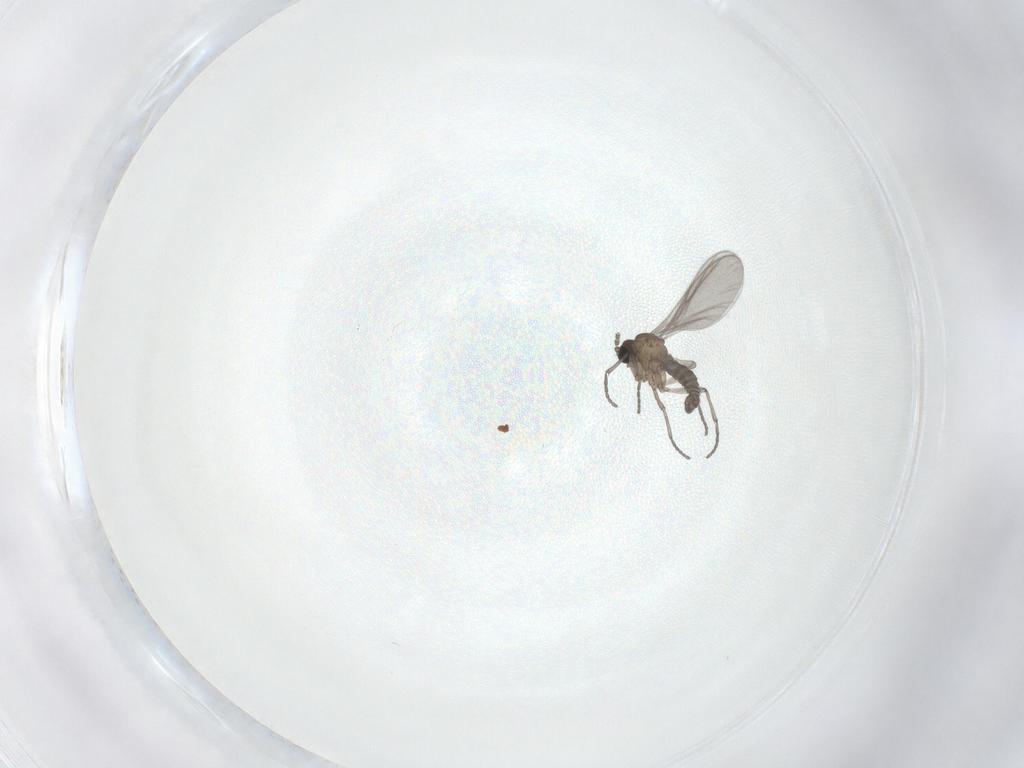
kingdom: Animalia
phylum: Arthropoda
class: Insecta
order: Diptera
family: Sciaridae
